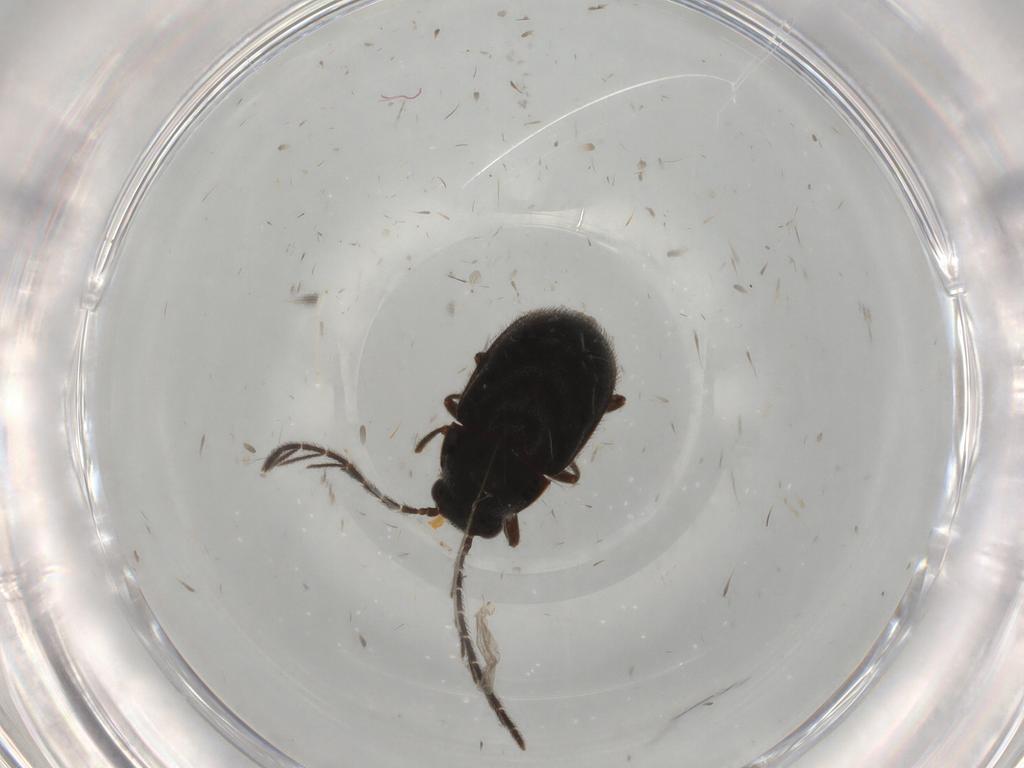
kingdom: Animalia
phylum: Arthropoda
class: Insecta
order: Coleoptera
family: Ptilodactylidae
